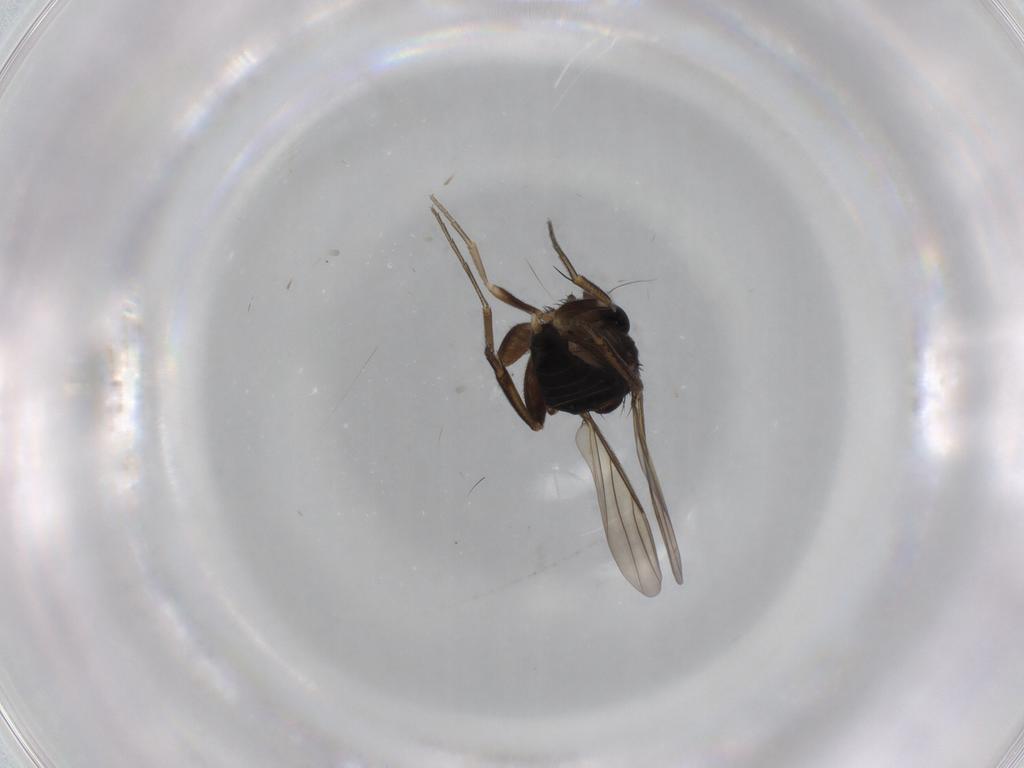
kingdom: Animalia
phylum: Arthropoda
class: Insecta
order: Diptera
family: Phoridae
